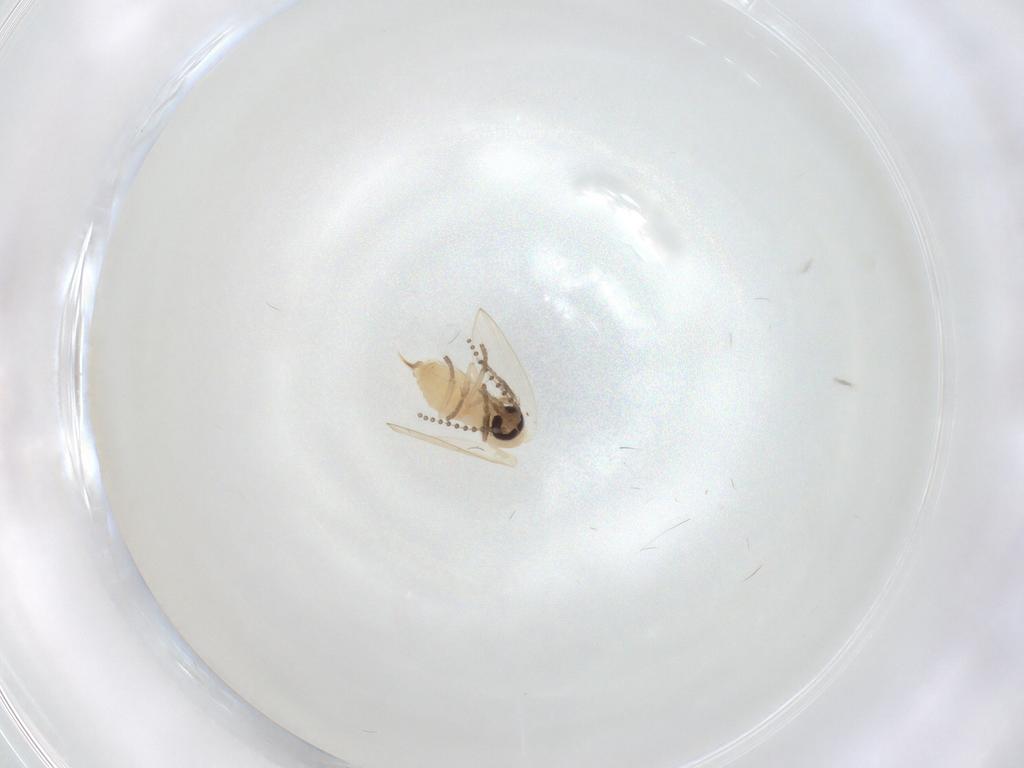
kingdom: Animalia
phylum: Arthropoda
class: Insecta
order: Diptera
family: Psychodidae
